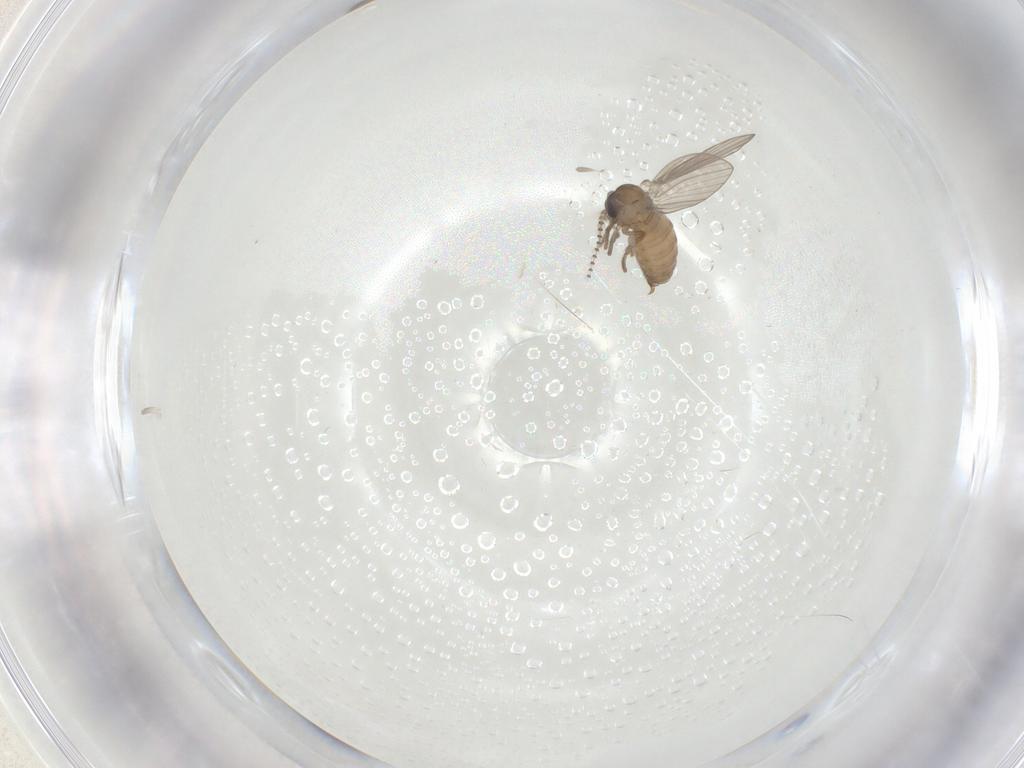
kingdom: Animalia
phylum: Arthropoda
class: Insecta
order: Diptera
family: Psychodidae
